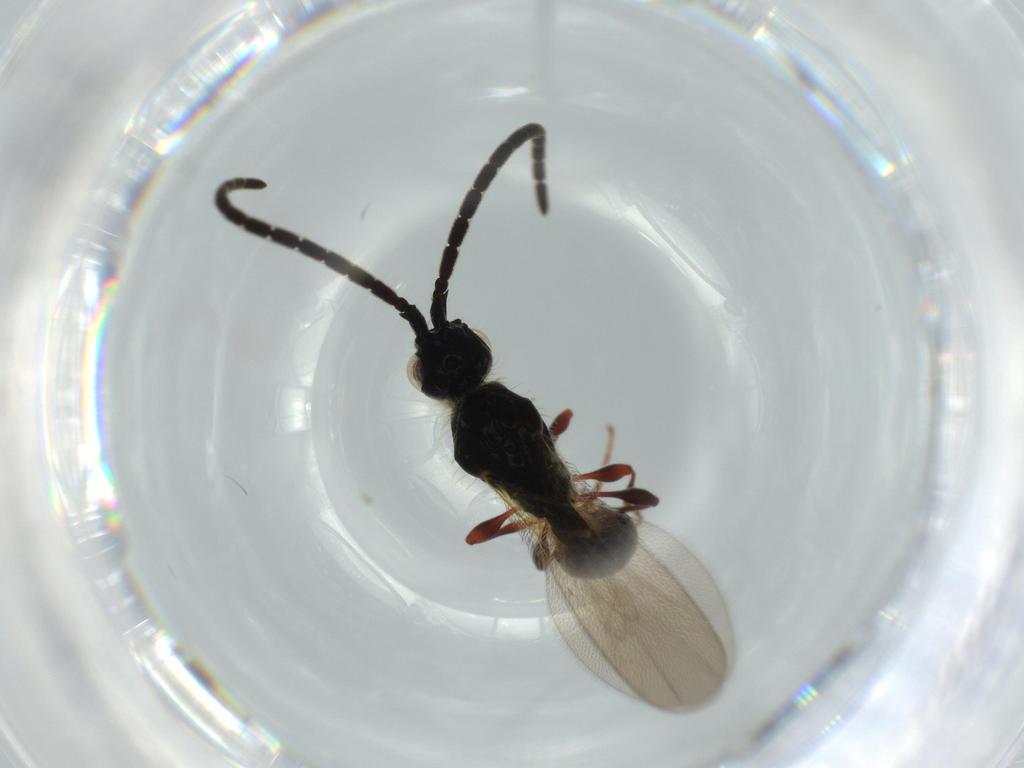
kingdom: Animalia
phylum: Arthropoda
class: Insecta
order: Hymenoptera
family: Diapriidae
